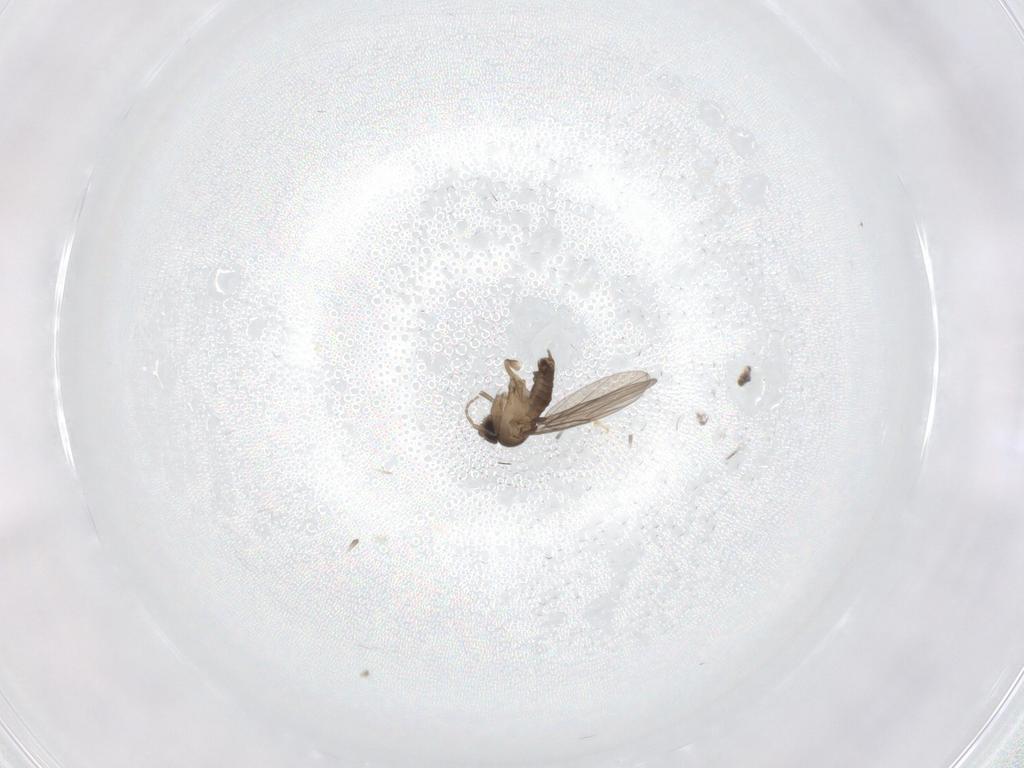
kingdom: Animalia
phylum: Arthropoda
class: Insecta
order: Diptera
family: Phoridae
